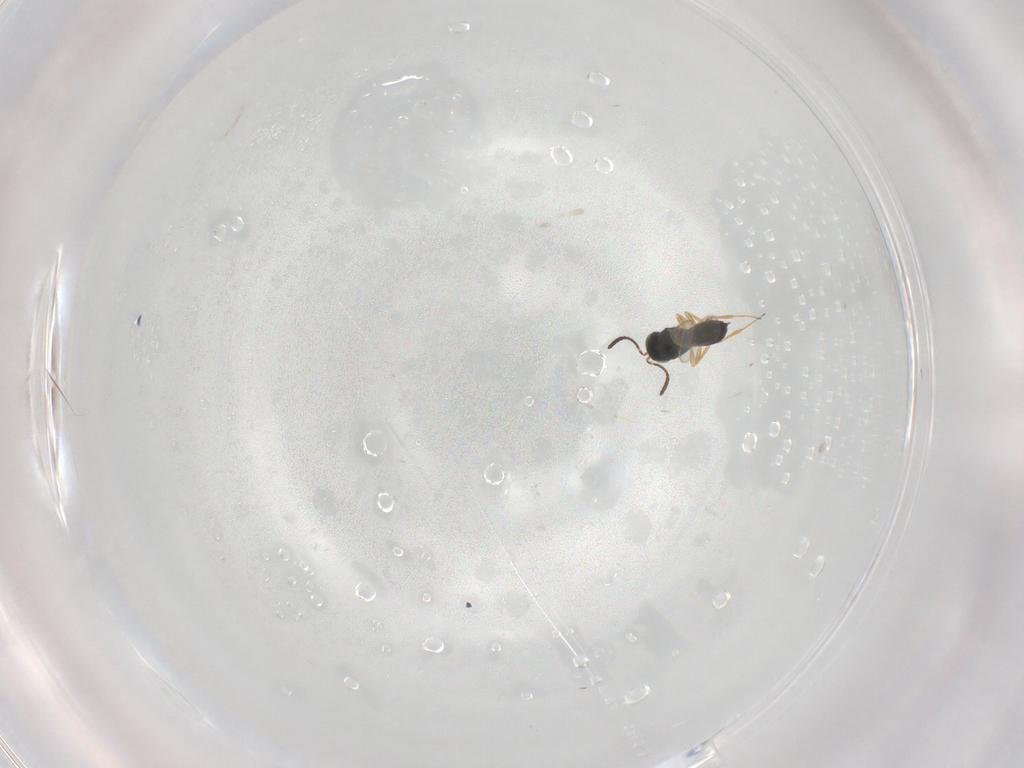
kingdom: Animalia
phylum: Arthropoda
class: Insecta
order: Hymenoptera
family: Scelionidae
